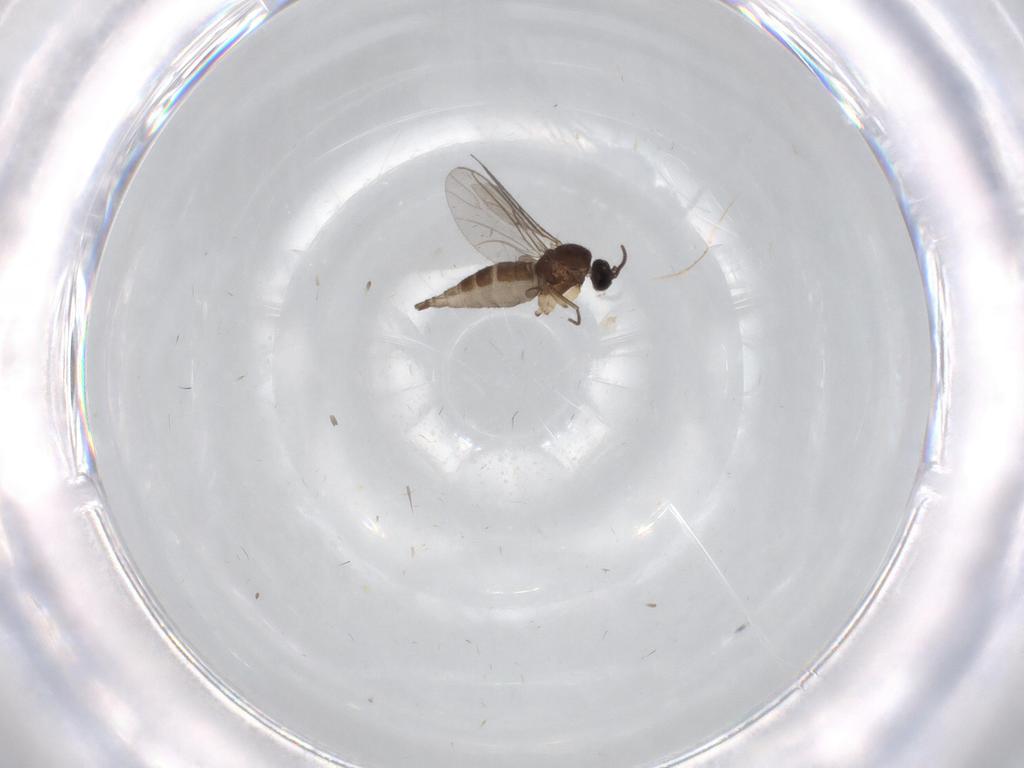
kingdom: Animalia
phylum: Arthropoda
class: Insecta
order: Diptera
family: Sciaridae
